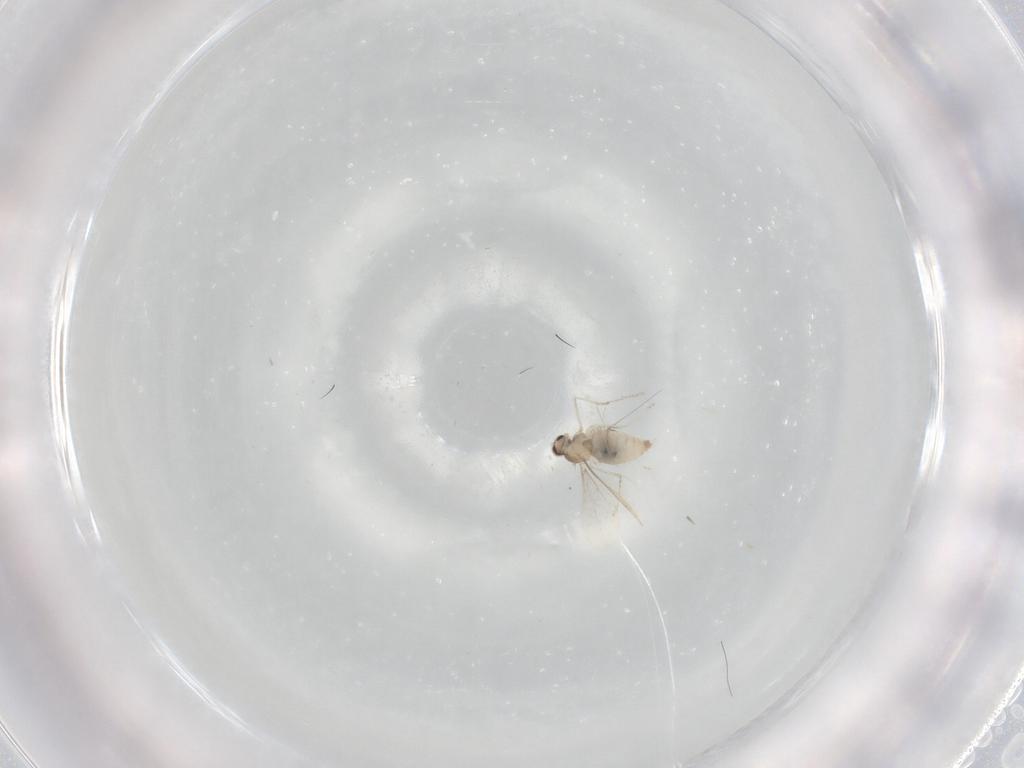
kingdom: Animalia
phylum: Arthropoda
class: Insecta
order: Diptera
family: Cecidomyiidae
